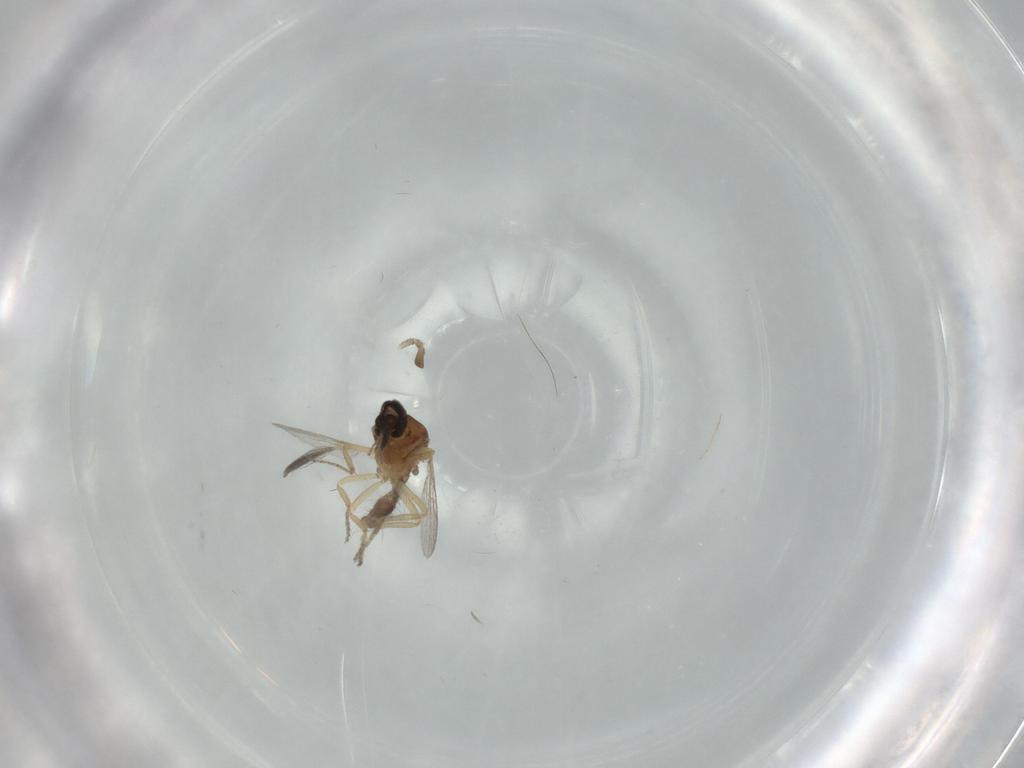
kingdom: Animalia
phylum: Arthropoda
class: Insecta
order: Diptera
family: Ceratopogonidae
